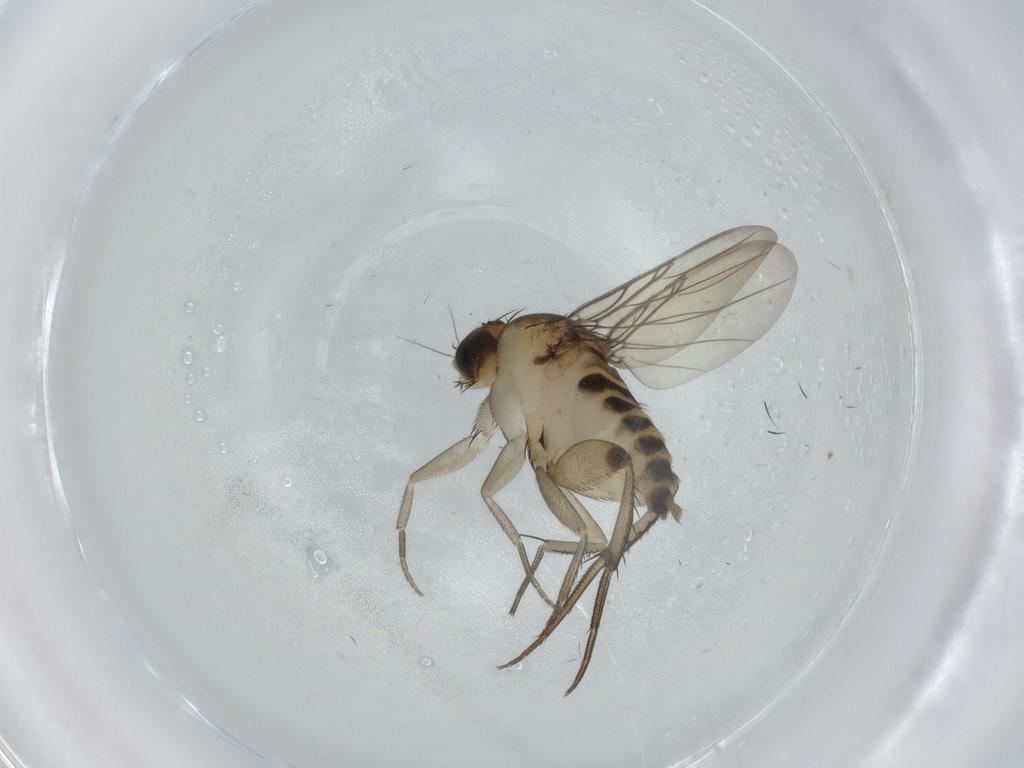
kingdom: Animalia
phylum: Arthropoda
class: Insecta
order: Diptera
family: Phoridae
